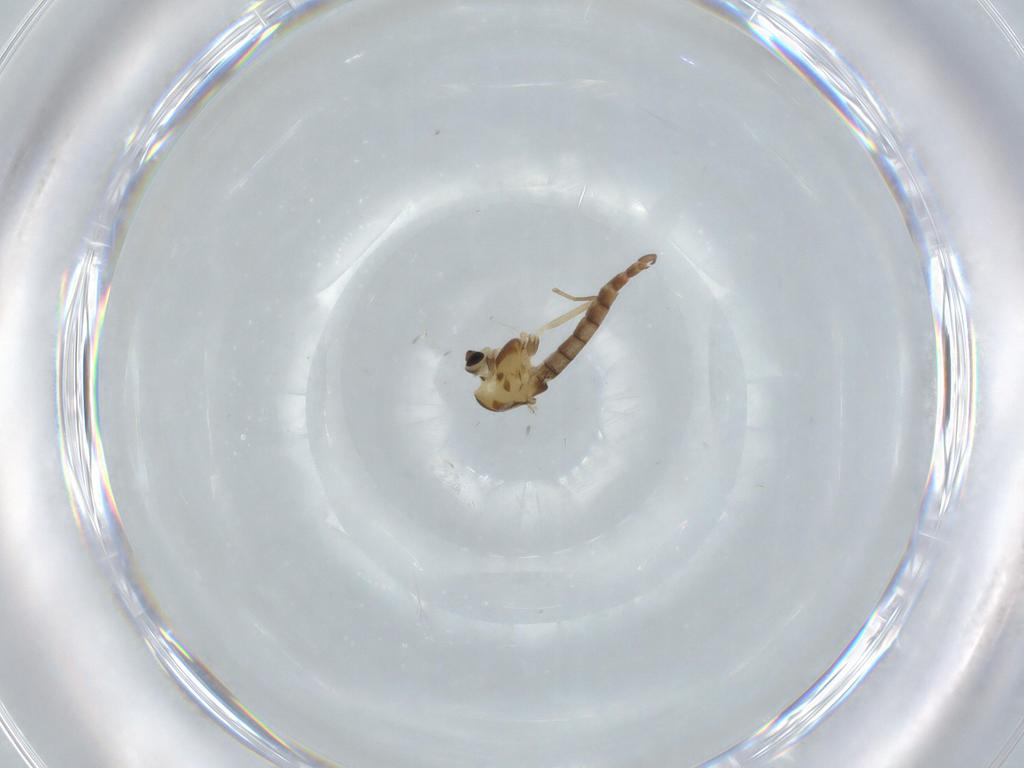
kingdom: Animalia
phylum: Arthropoda
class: Insecta
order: Diptera
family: Chironomidae
